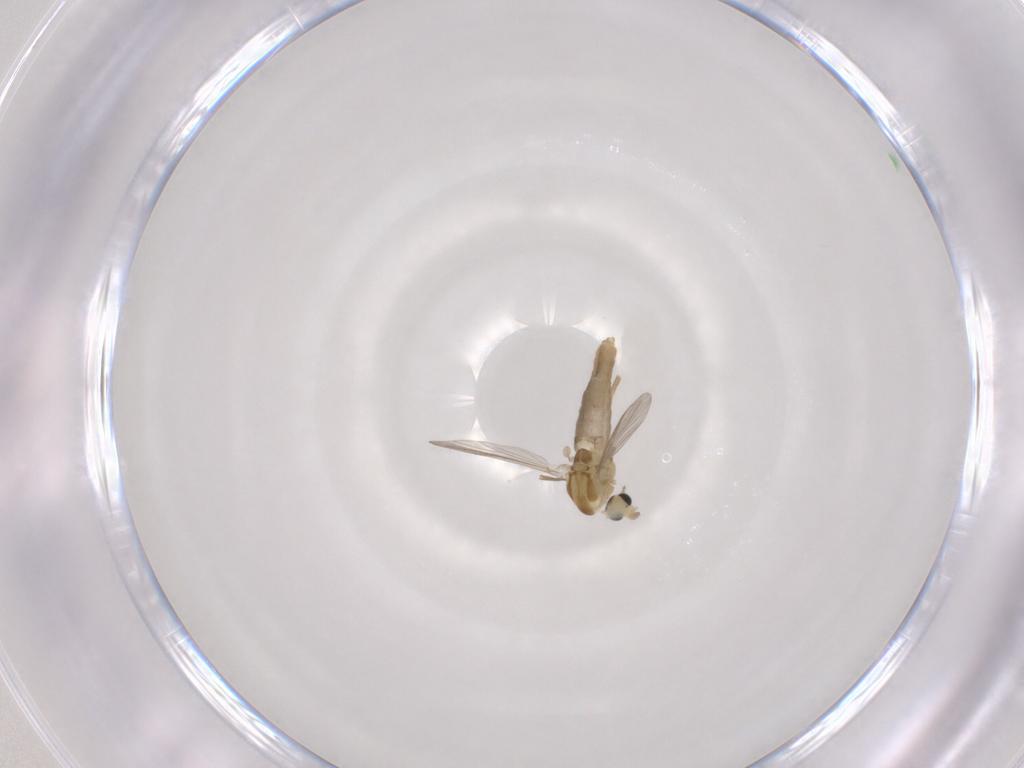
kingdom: Animalia
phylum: Arthropoda
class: Insecta
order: Diptera
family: Chironomidae
